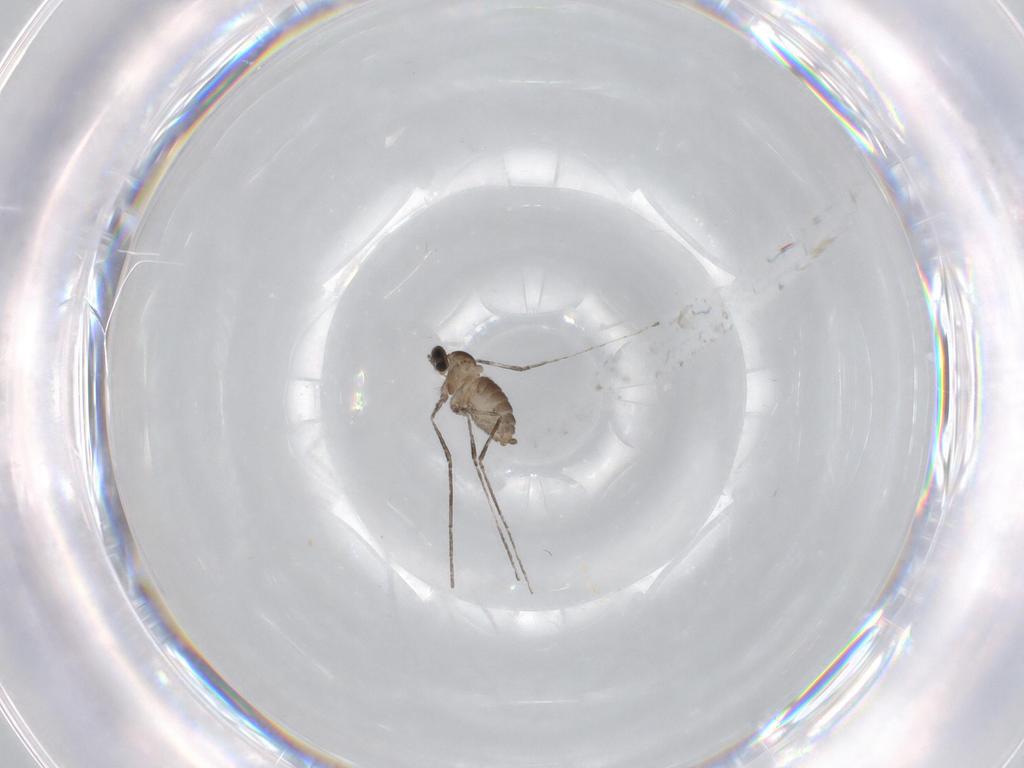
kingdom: Animalia
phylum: Arthropoda
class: Insecta
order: Diptera
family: Cecidomyiidae
